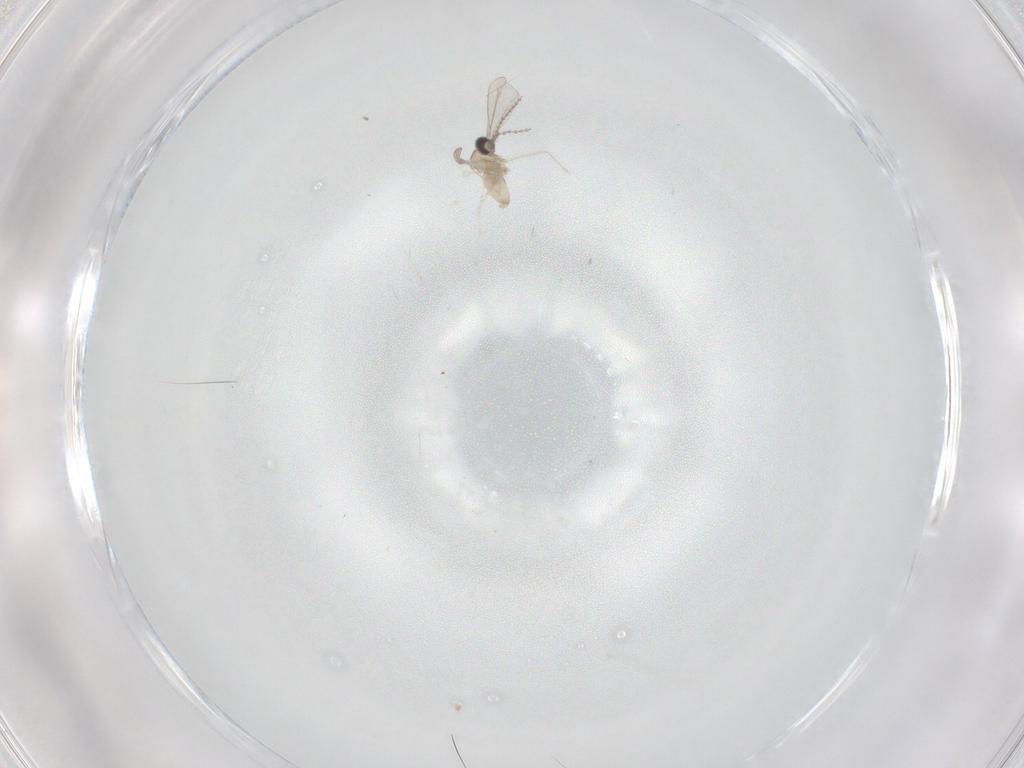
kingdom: Animalia
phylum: Arthropoda
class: Insecta
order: Diptera
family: Cecidomyiidae
